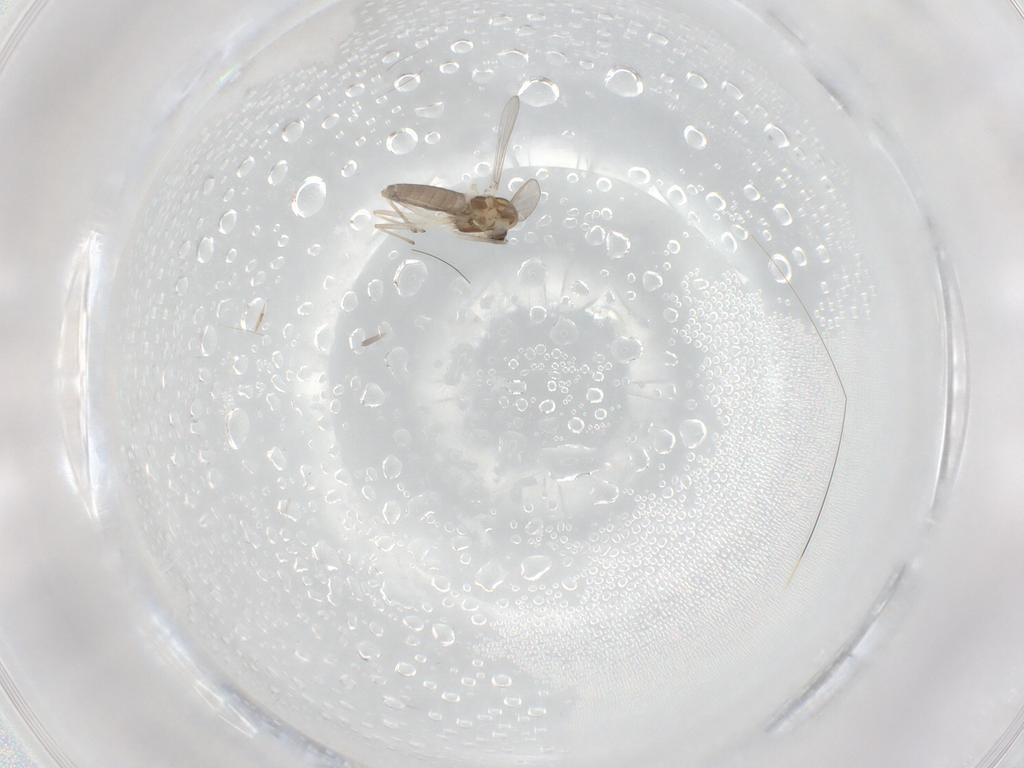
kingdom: Animalia
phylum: Arthropoda
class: Insecta
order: Diptera
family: Chironomidae
